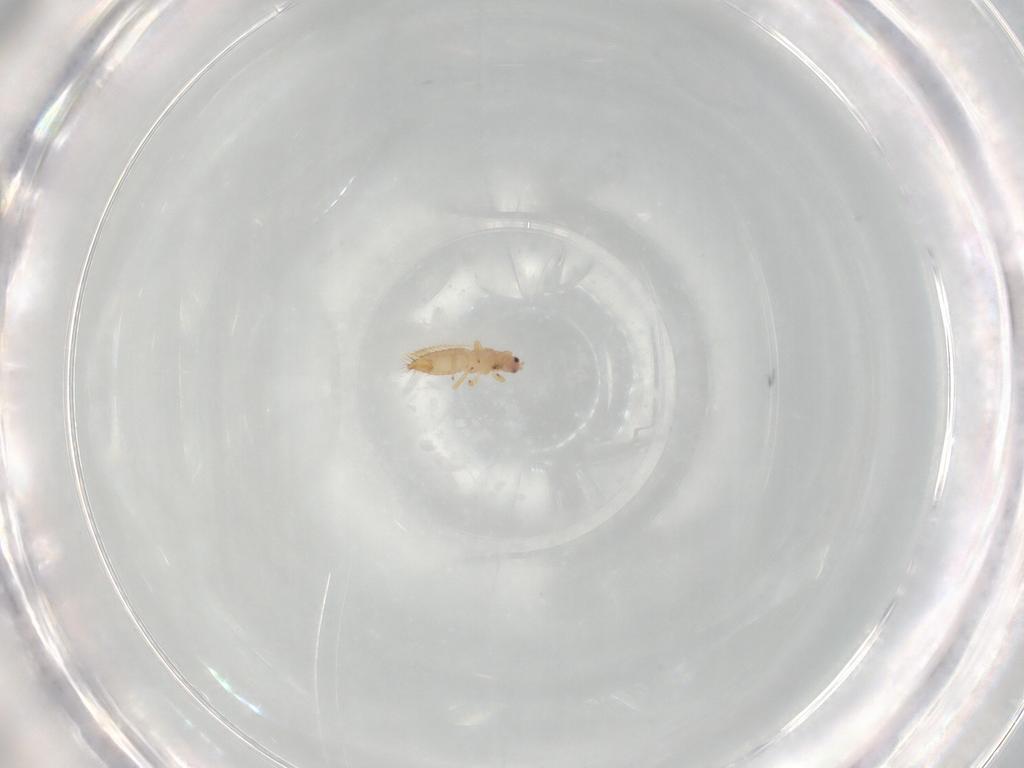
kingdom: Animalia
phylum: Arthropoda
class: Insecta
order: Thysanoptera
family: Thripidae
